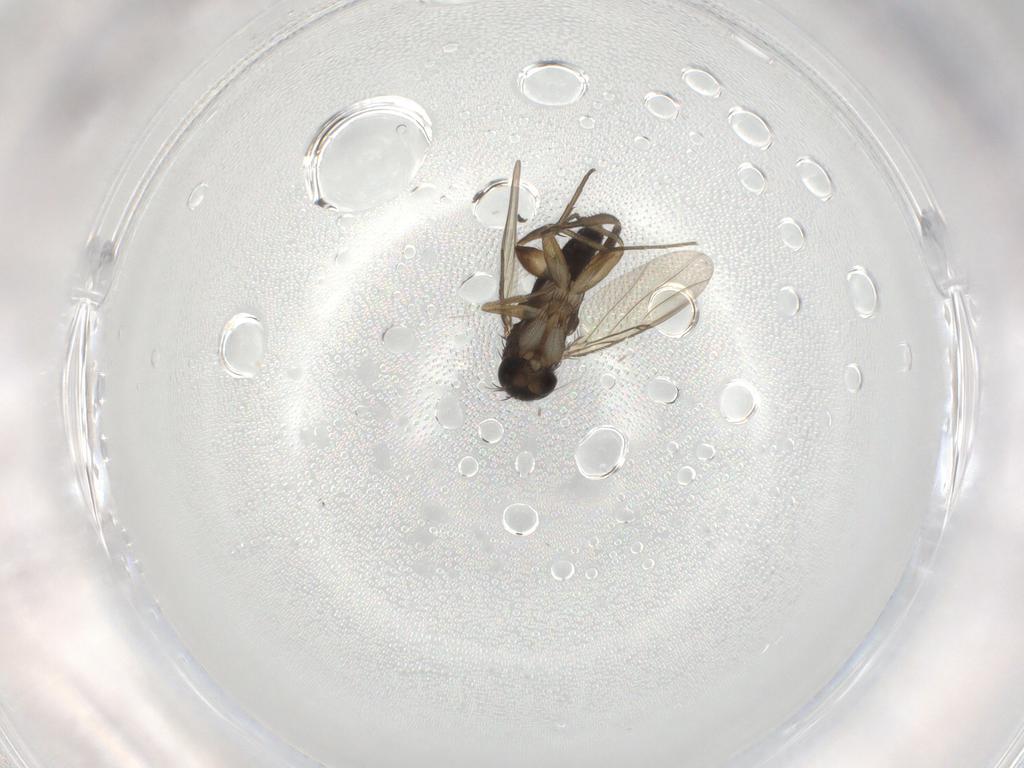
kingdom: Animalia
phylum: Arthropoda
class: Insecta
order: Diptera
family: Phoridae
